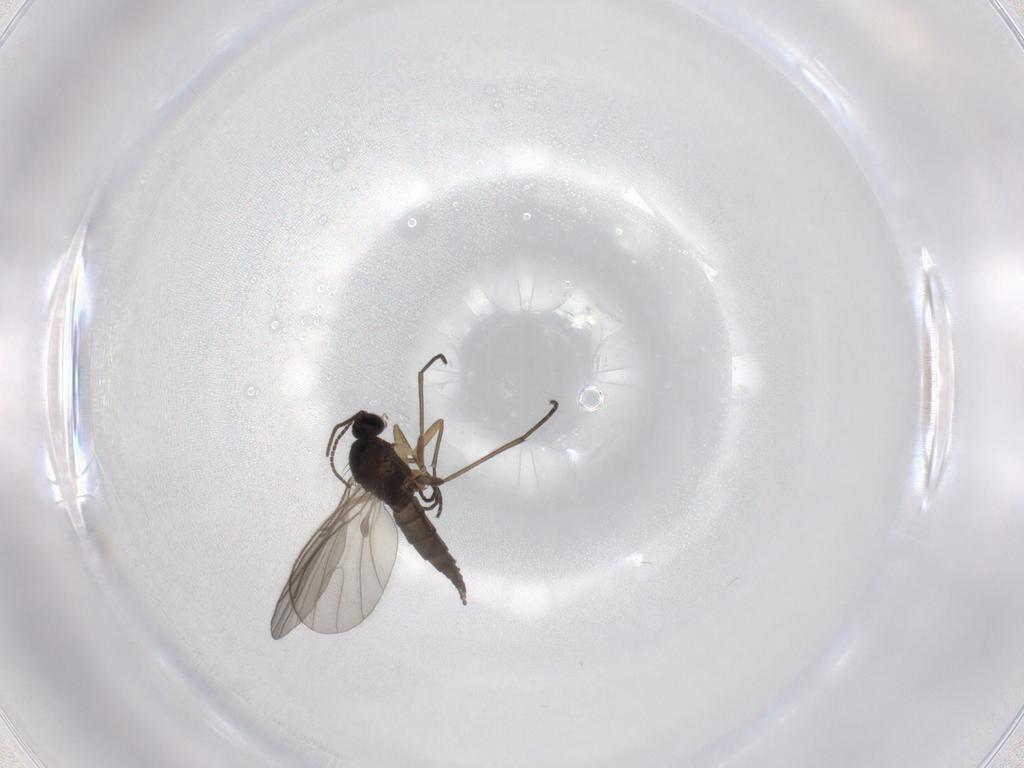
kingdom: Animalia
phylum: Arthropoda
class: Insecta
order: Diptera
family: Sciaridae
